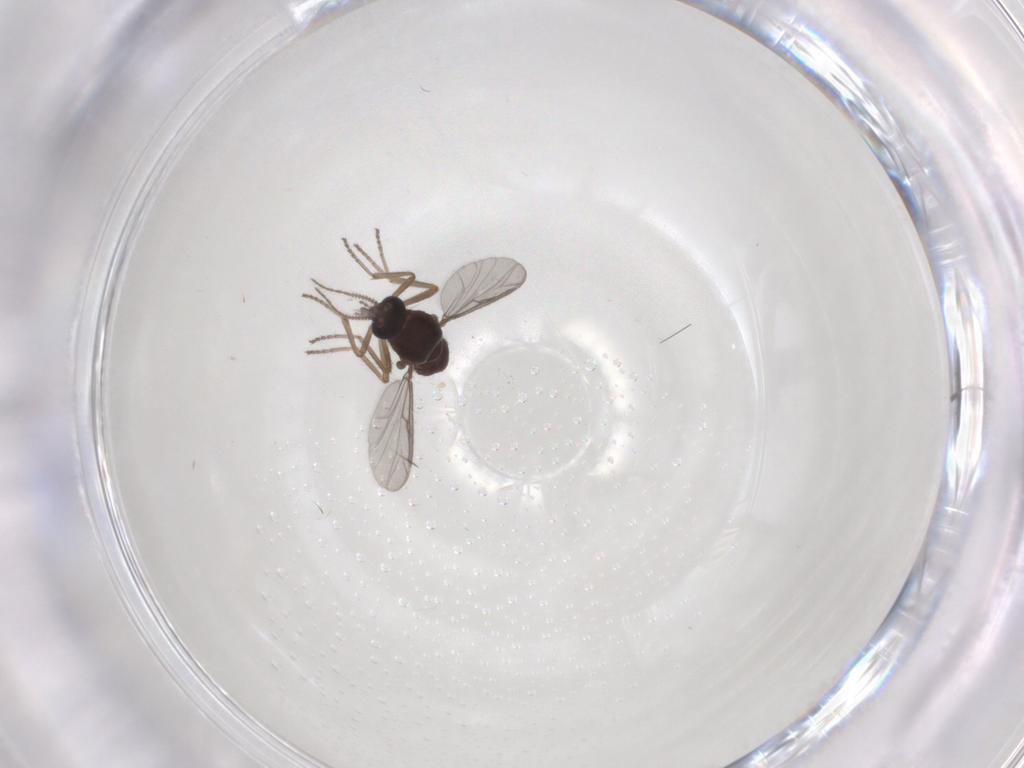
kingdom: Animalia
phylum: Arthropoda
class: Insecta
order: Diptera
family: Ceratopogonidae
